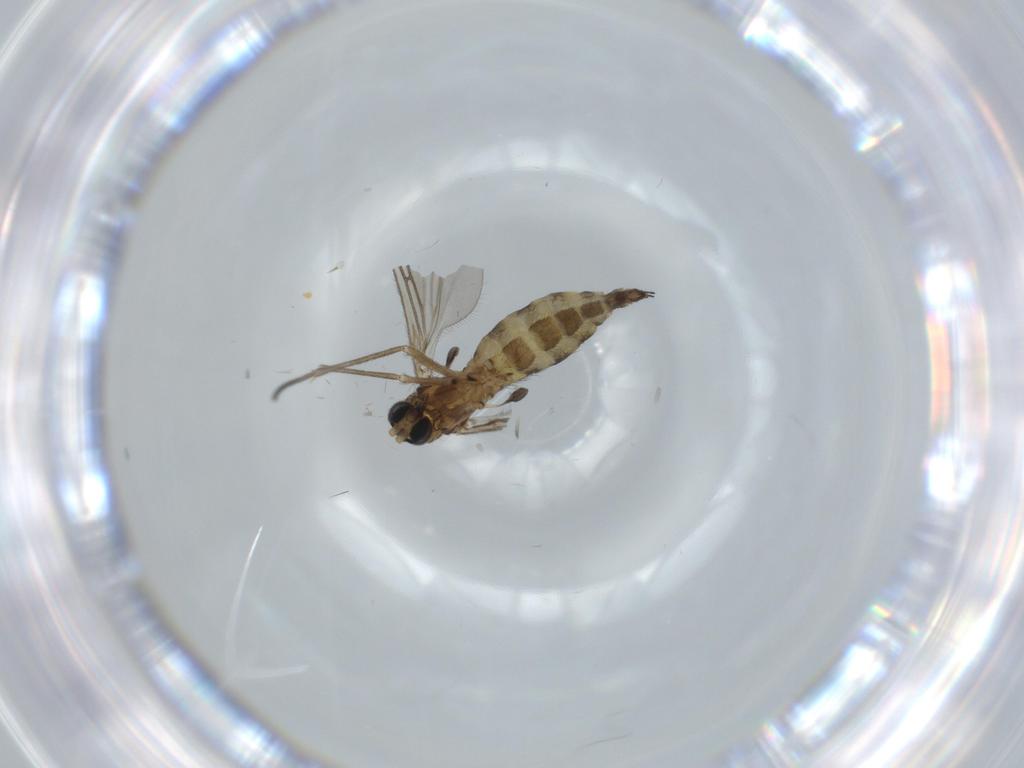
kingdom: Animalia
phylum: Arthropoda
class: Insecta
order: Diptera
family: Sciaridae
